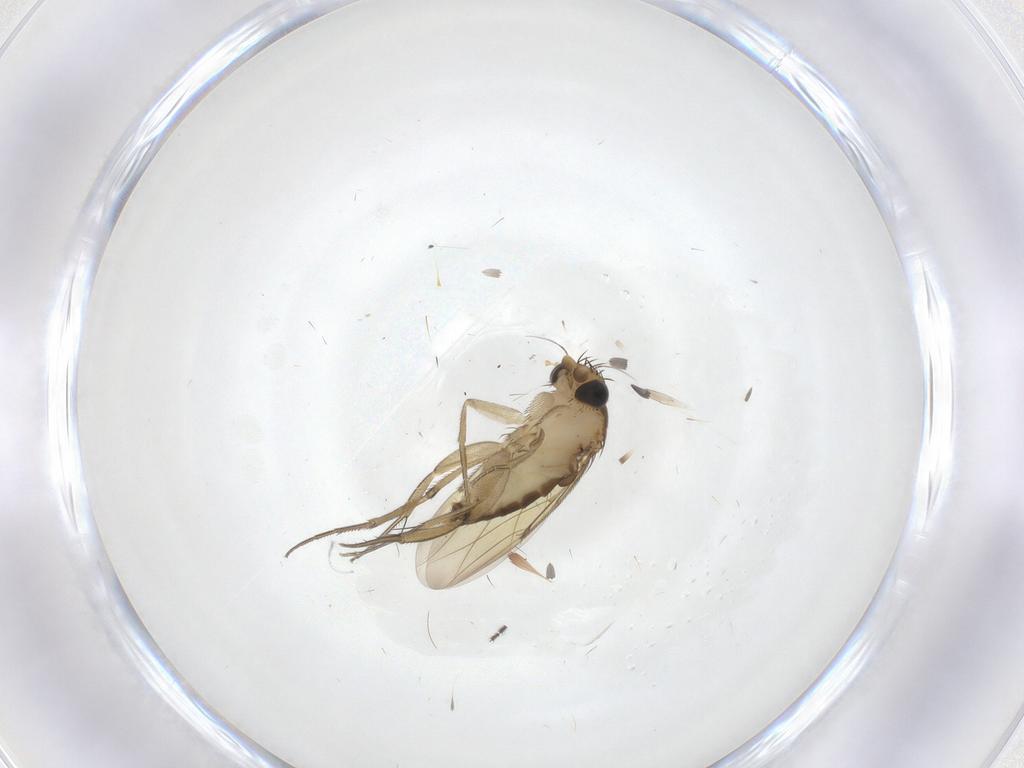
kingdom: Animalia
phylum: Arthropoda
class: Insecta
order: Diptera
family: Phoridae
